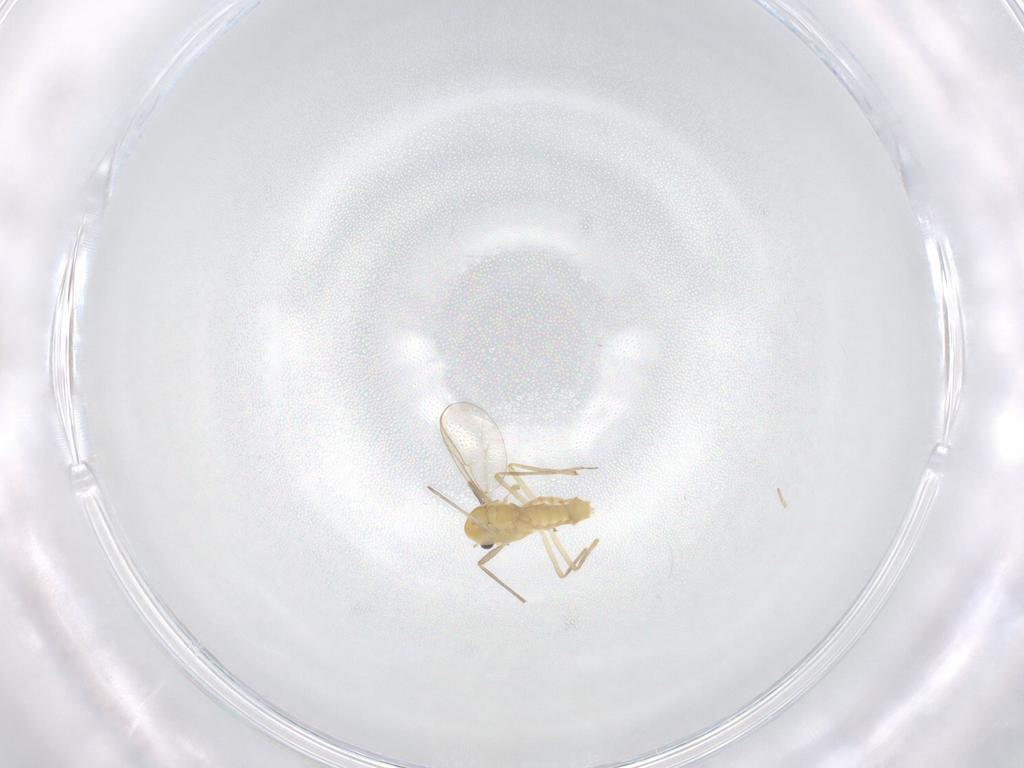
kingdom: Animalia
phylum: Arthropoda
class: Insecta
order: Diptera
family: Chironomidae
